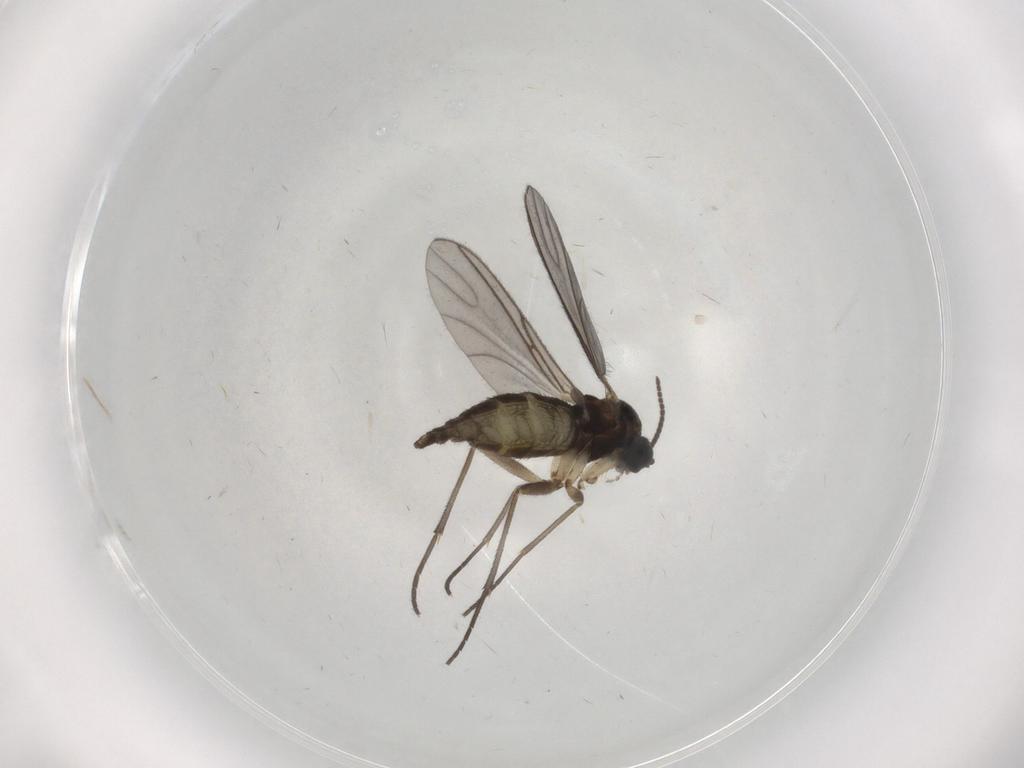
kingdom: Animalia
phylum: Arthropoda
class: Insecta
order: Diptera
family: Sciaridae
